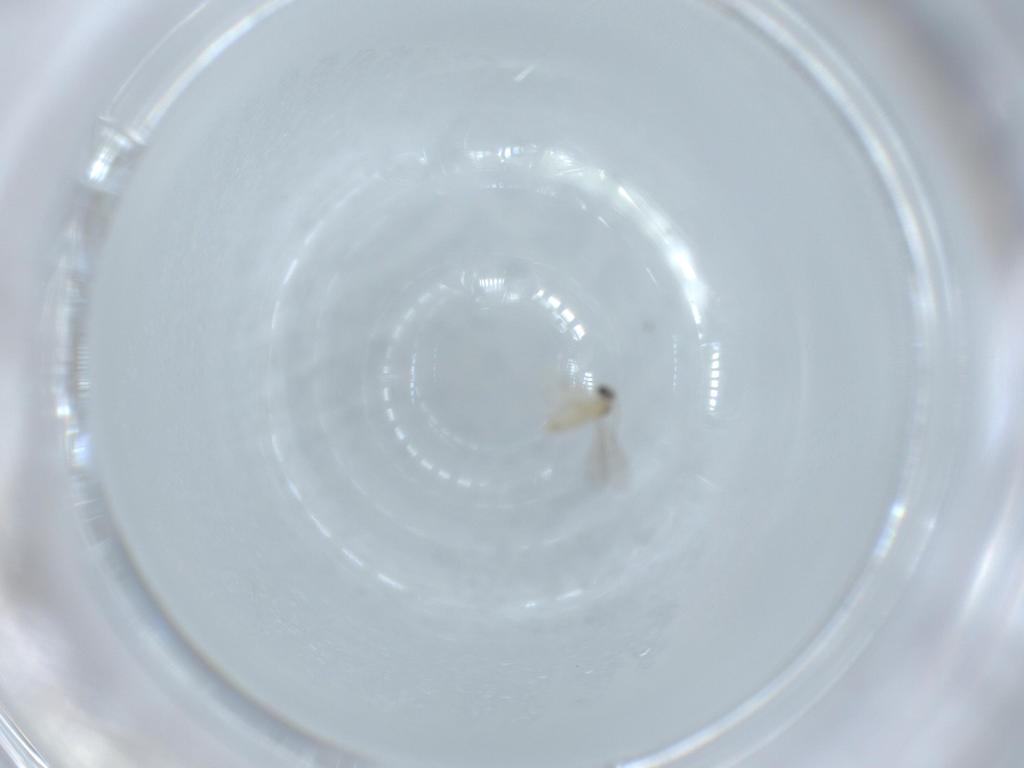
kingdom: Animalia
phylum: Arthropoda
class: Insecta
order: Diptera
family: Cecidomyiidae
